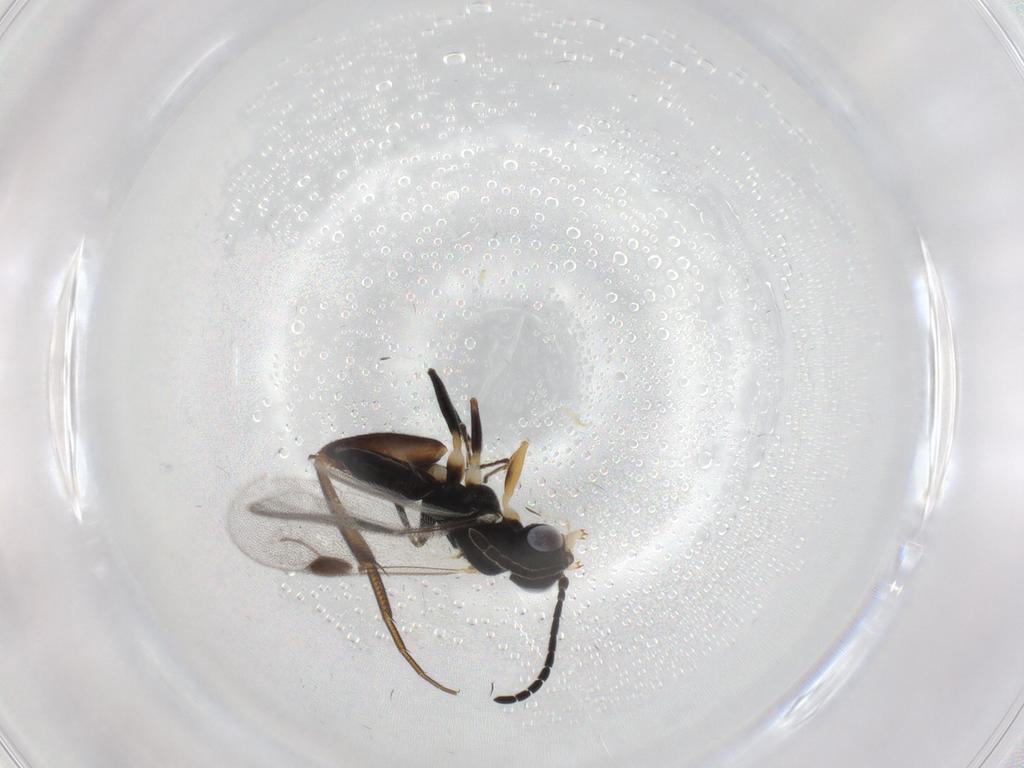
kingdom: Animalia
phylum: Arthropoda
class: Insecta
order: Hymenoptera
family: Dryinidae
